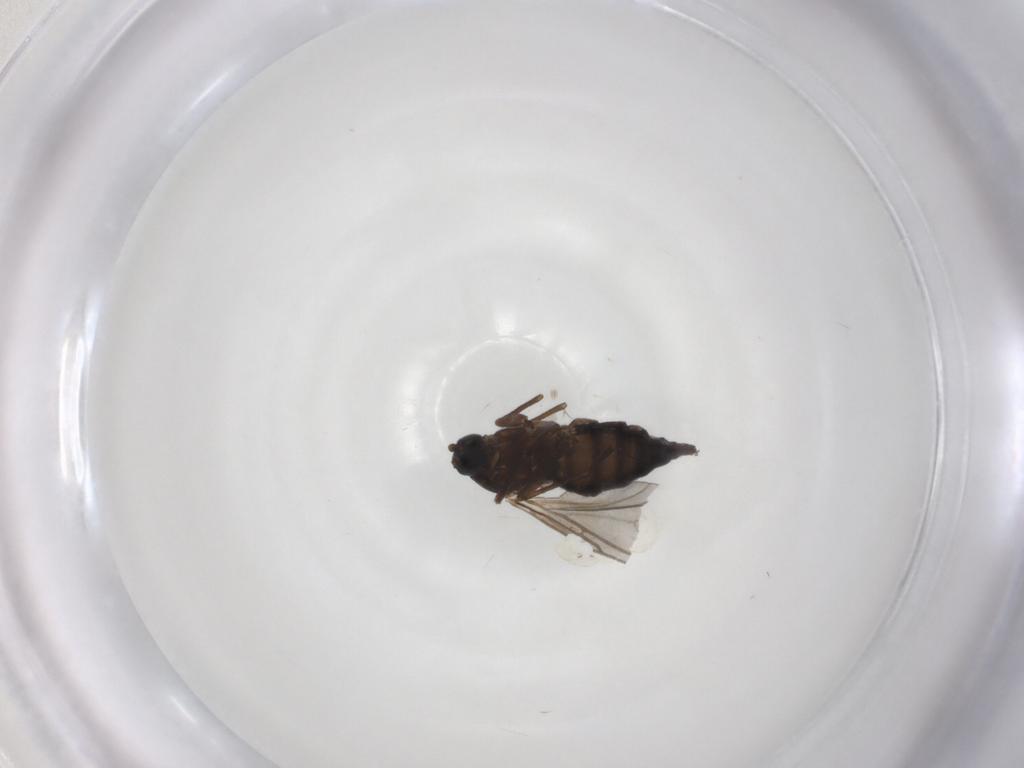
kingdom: Animalia
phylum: Arthropoda
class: Insecta
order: Diptera
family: Sciaridae
